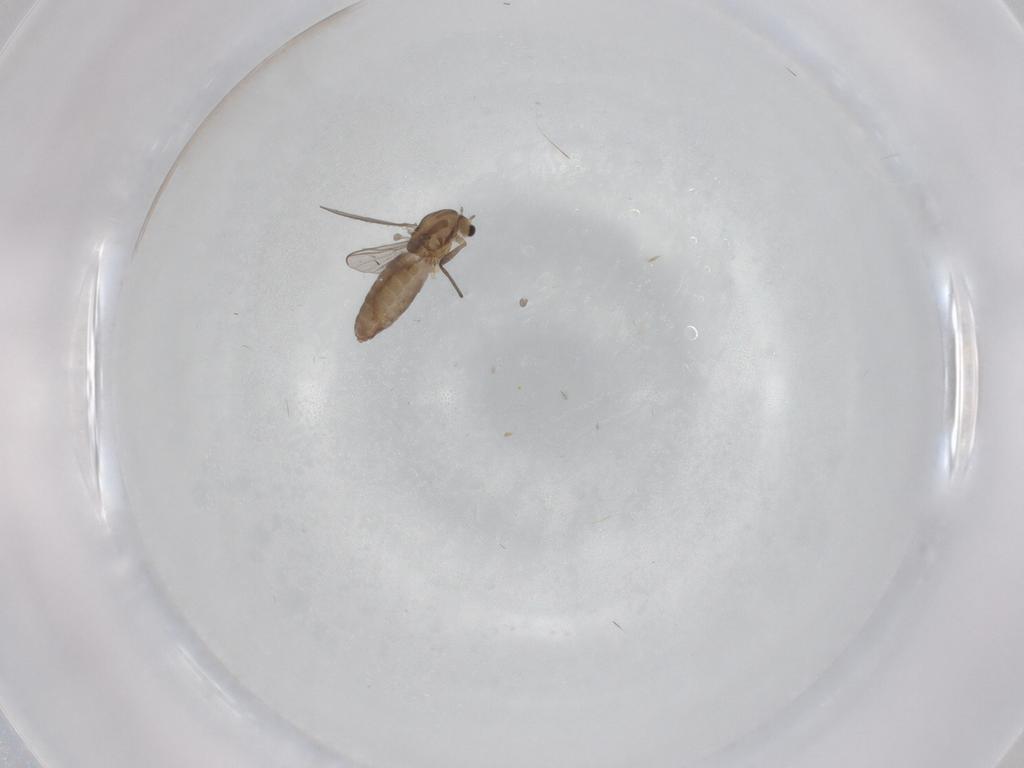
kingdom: Animalia
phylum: Arthropoda
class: Insecta
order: Diptera
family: Chironomidae
